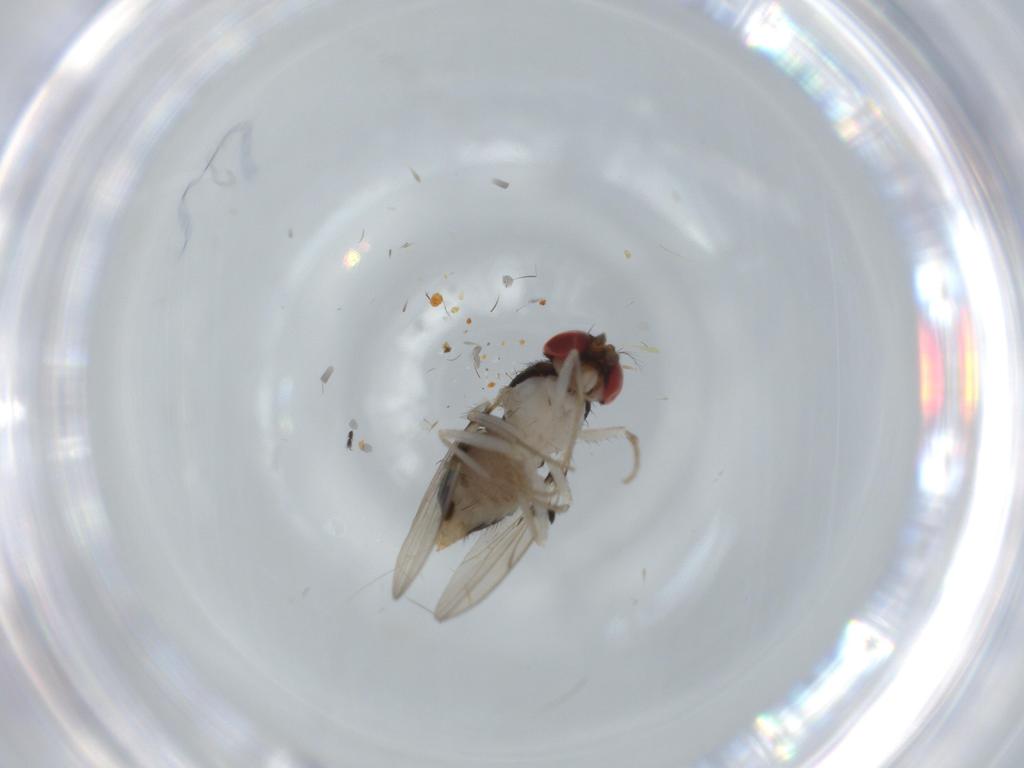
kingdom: Animalia
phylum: Arthropoda
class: Insecta
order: Diptera
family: Drosophilidae
